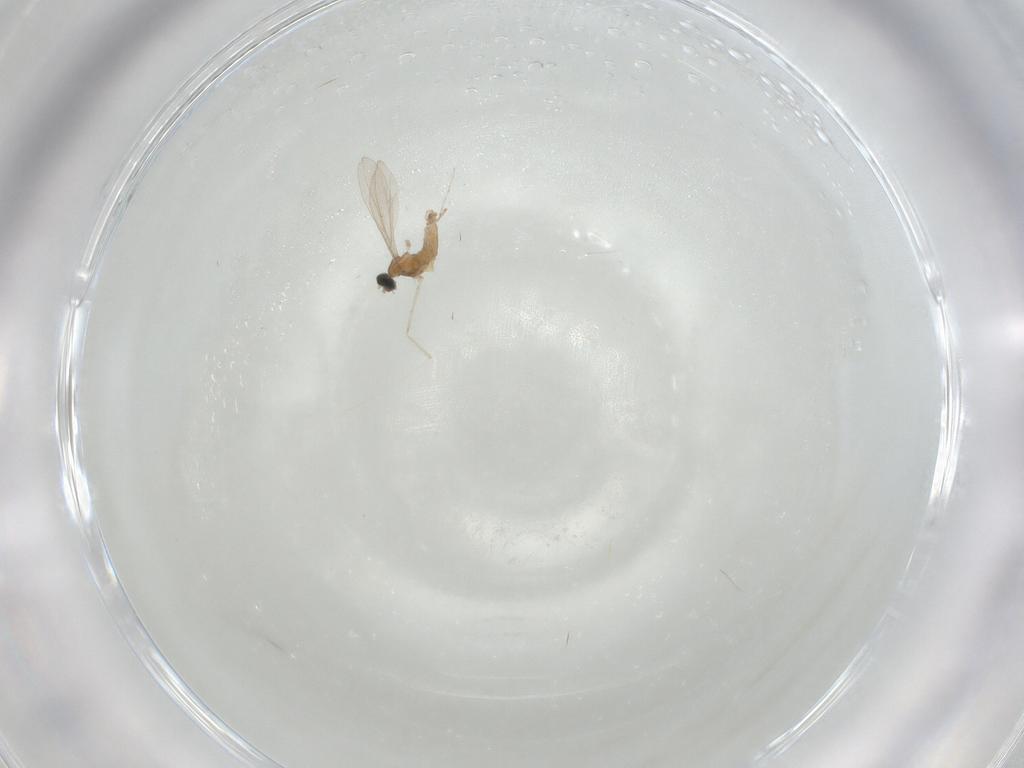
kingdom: Animalia
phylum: Arthropoda
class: Insecta
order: Diptera
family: Cecidomyiidae
